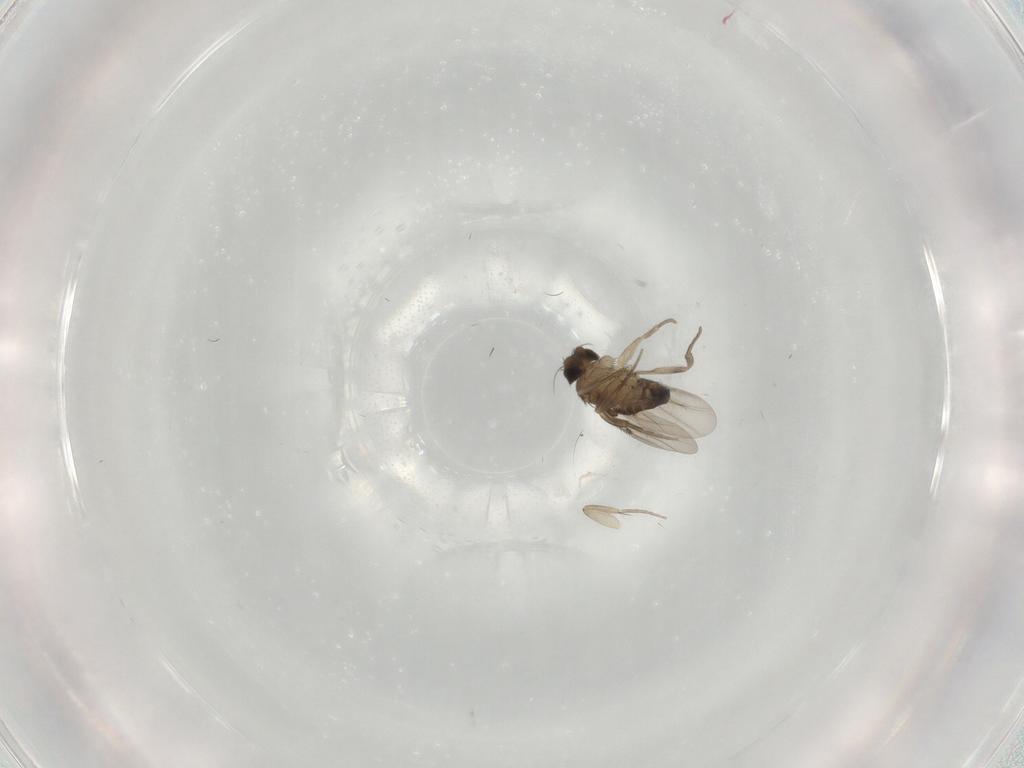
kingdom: Animalia
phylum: Arthropoda
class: Insecta
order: Diptera
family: Phoridae
